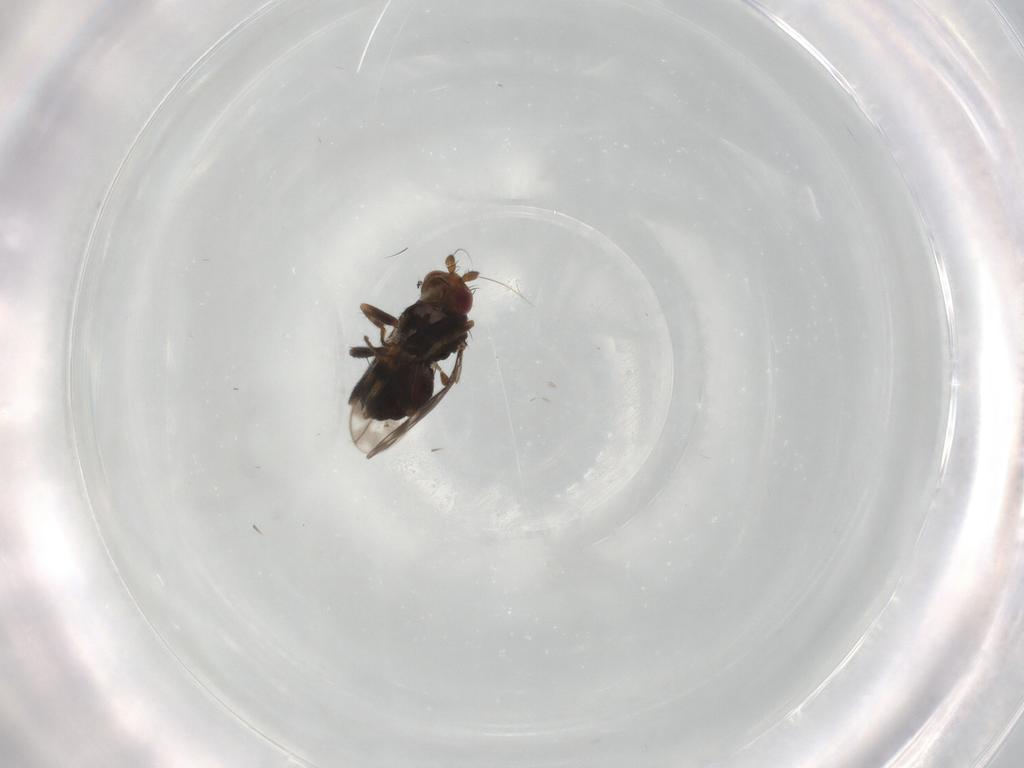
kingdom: Animalia
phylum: Arthropoda
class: Insecta
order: Diptera
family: Sphaeroceridae
